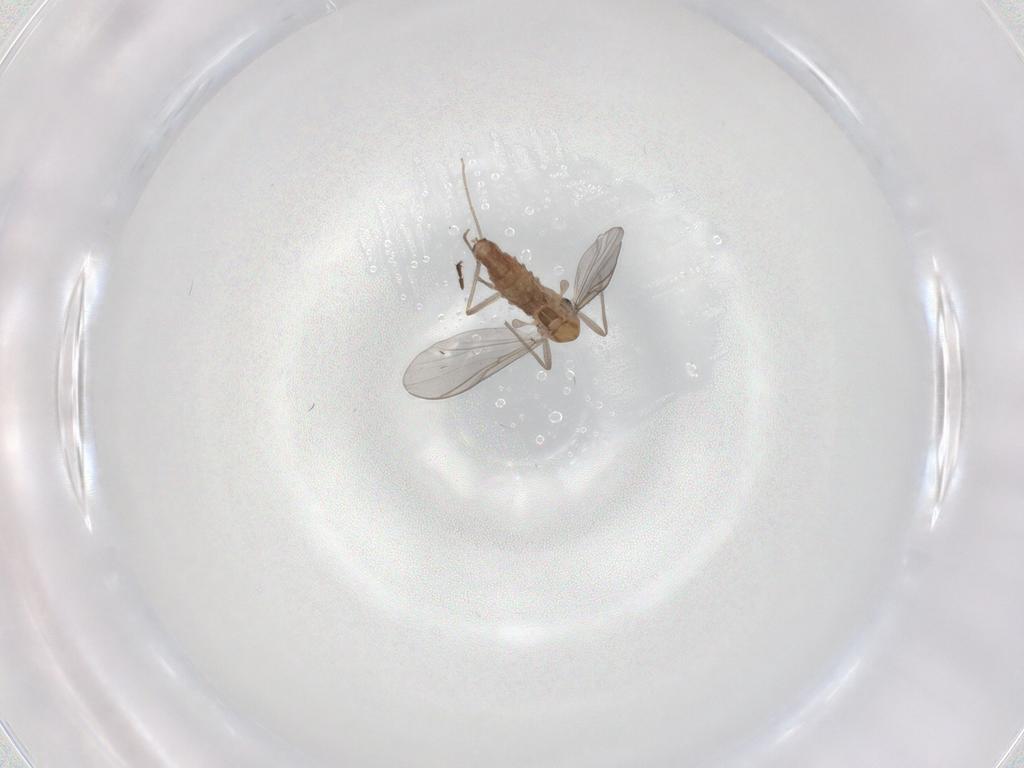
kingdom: Animalia
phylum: Arthropoda
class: Insecta
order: Diptera
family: Chironomidae
